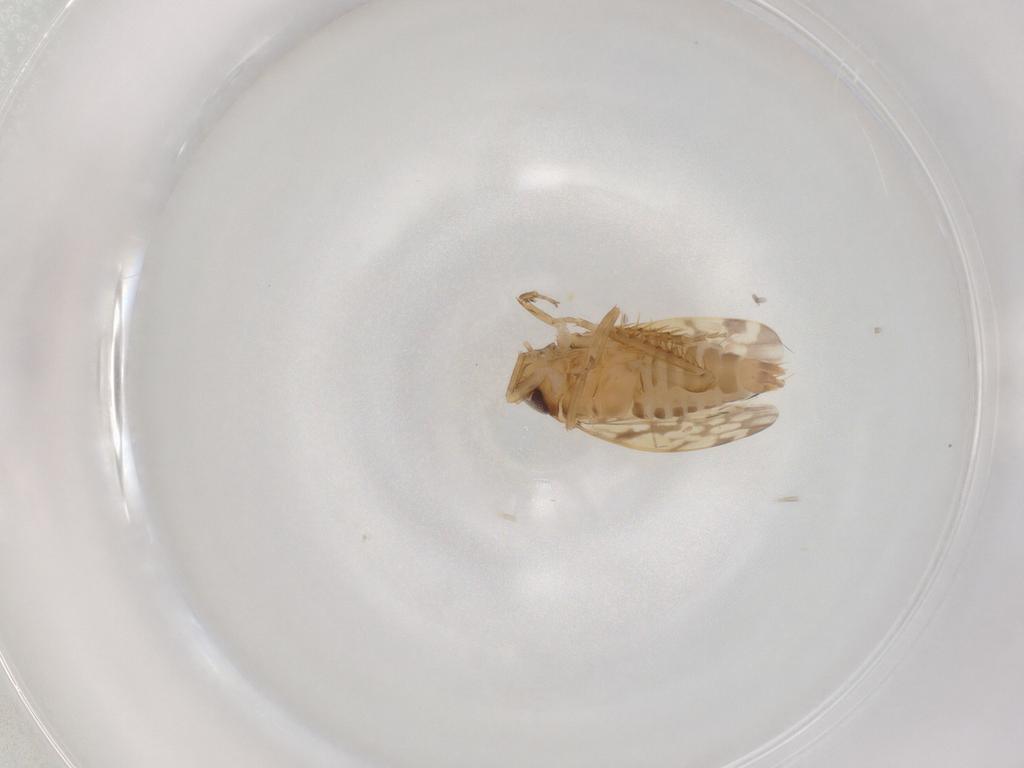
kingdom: Animalia
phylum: Arthropoda
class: Insecta
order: Hemiptera
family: Cicadellidae
